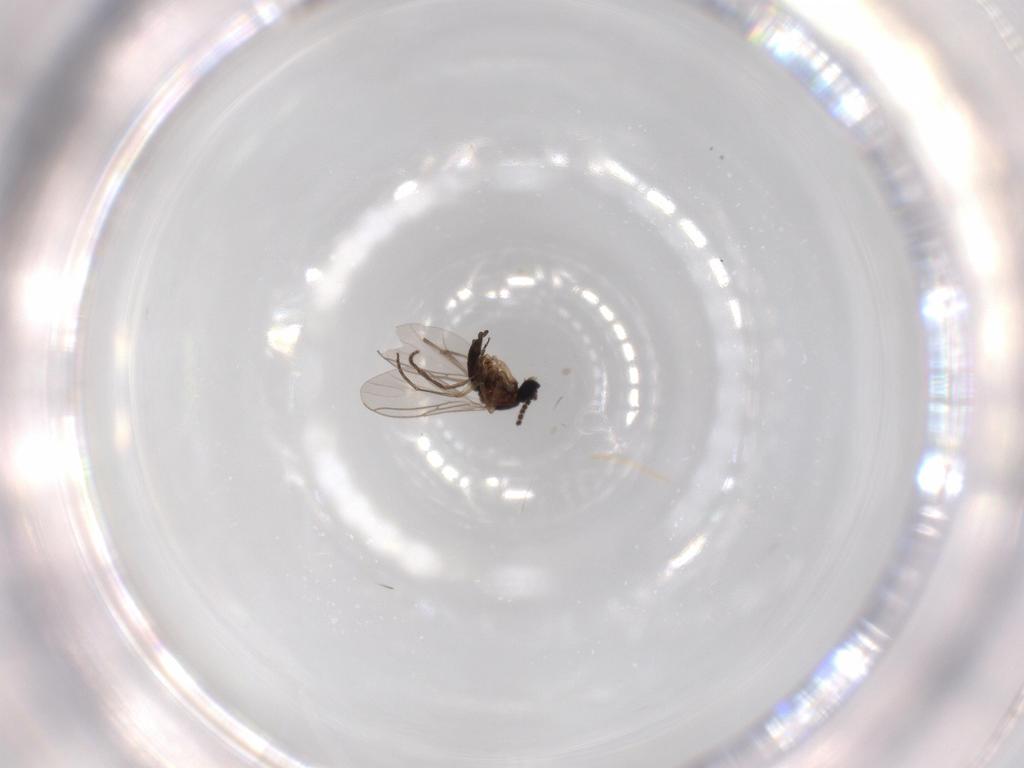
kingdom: Animalia
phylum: Arthropoda
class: Insecta
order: Diptera
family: Sciaridae
